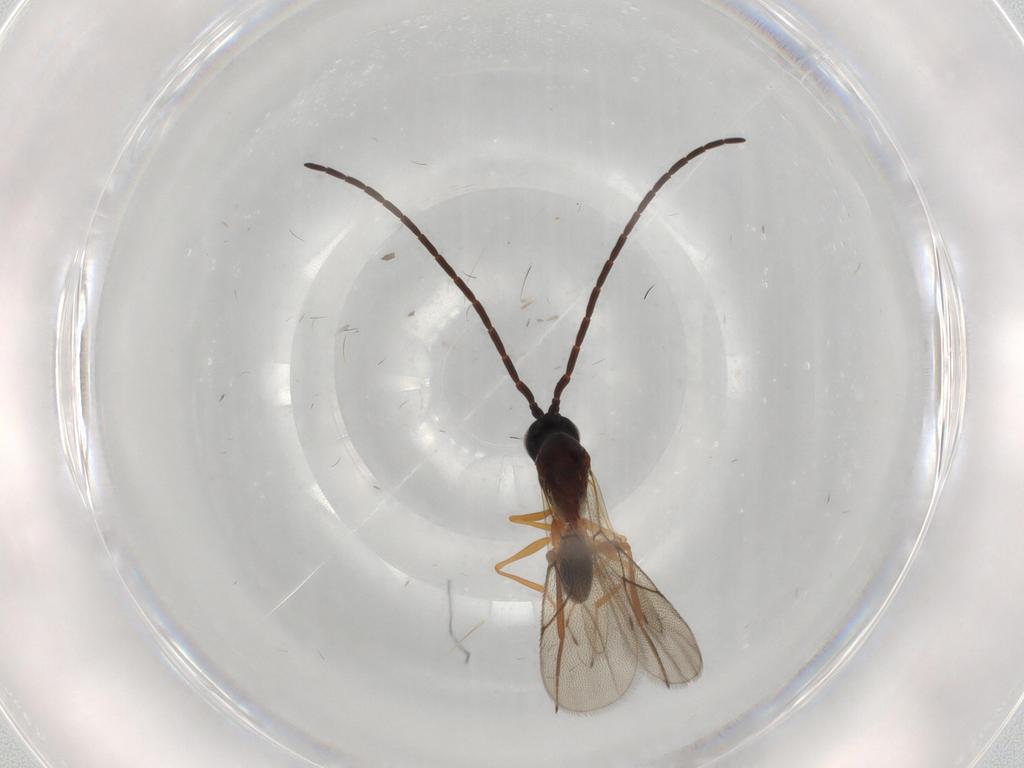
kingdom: Animalia
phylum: Arthropoda
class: Insecta
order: Hymenoptera
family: Figitidae
